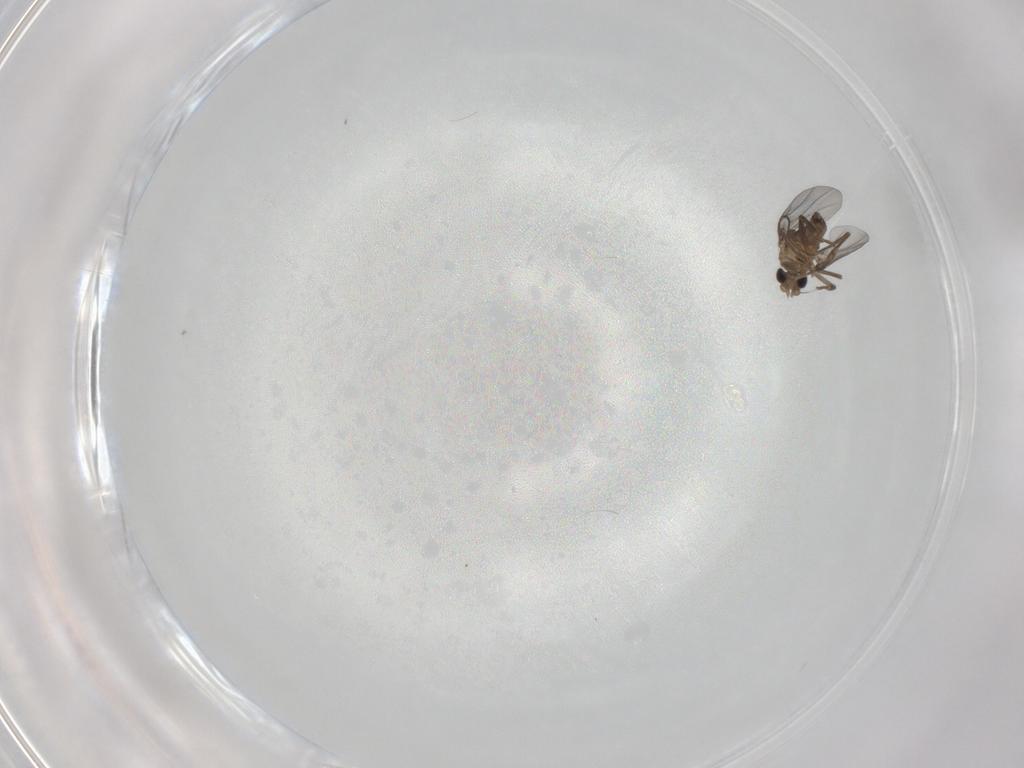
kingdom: Animalia
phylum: Arthropoda
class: Insecta
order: Diptera
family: Cecidomyiidae
